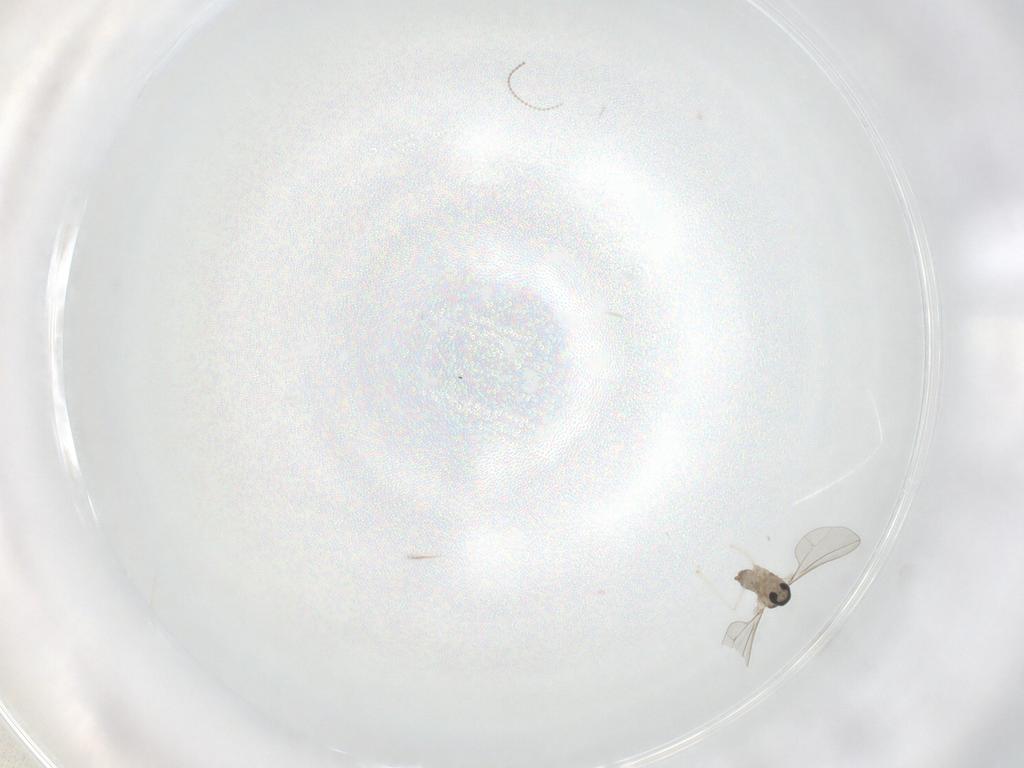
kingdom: Animalia
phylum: Arthropoda
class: Insecta
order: Diptera
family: Cecidomyiidae
